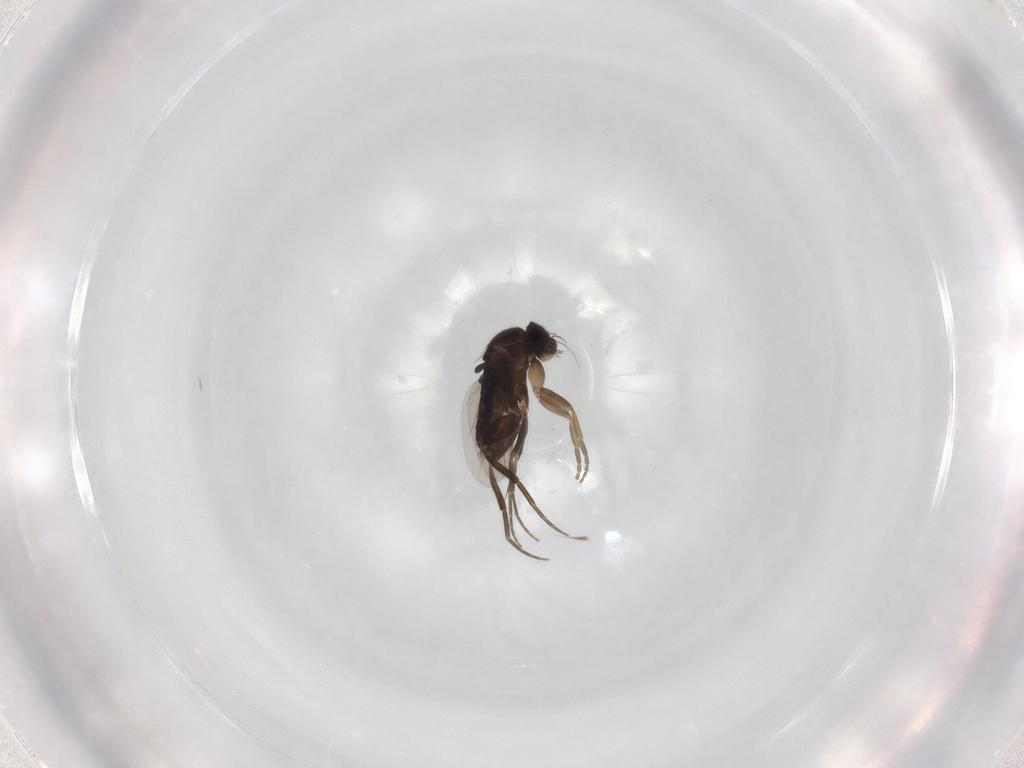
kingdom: Animalia
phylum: Arthropoda
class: Insecta
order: Diptera
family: Phoridae
